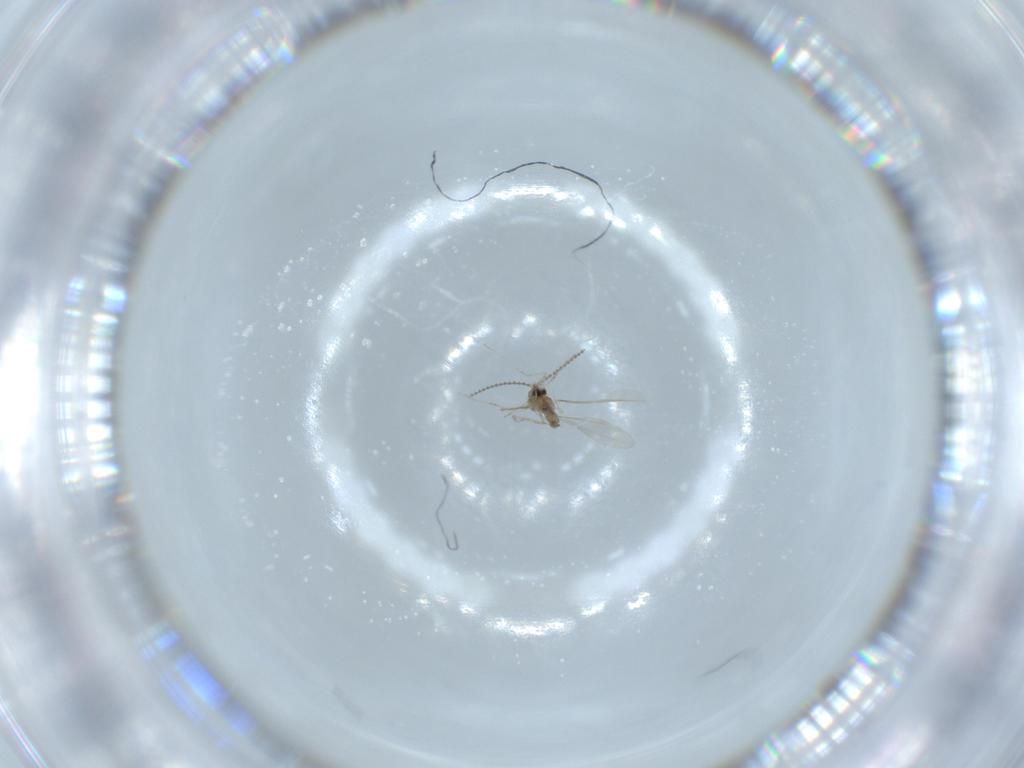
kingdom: Animalia
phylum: Arthropoda
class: Insecta
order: Diptera
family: Cecidomyiidae
